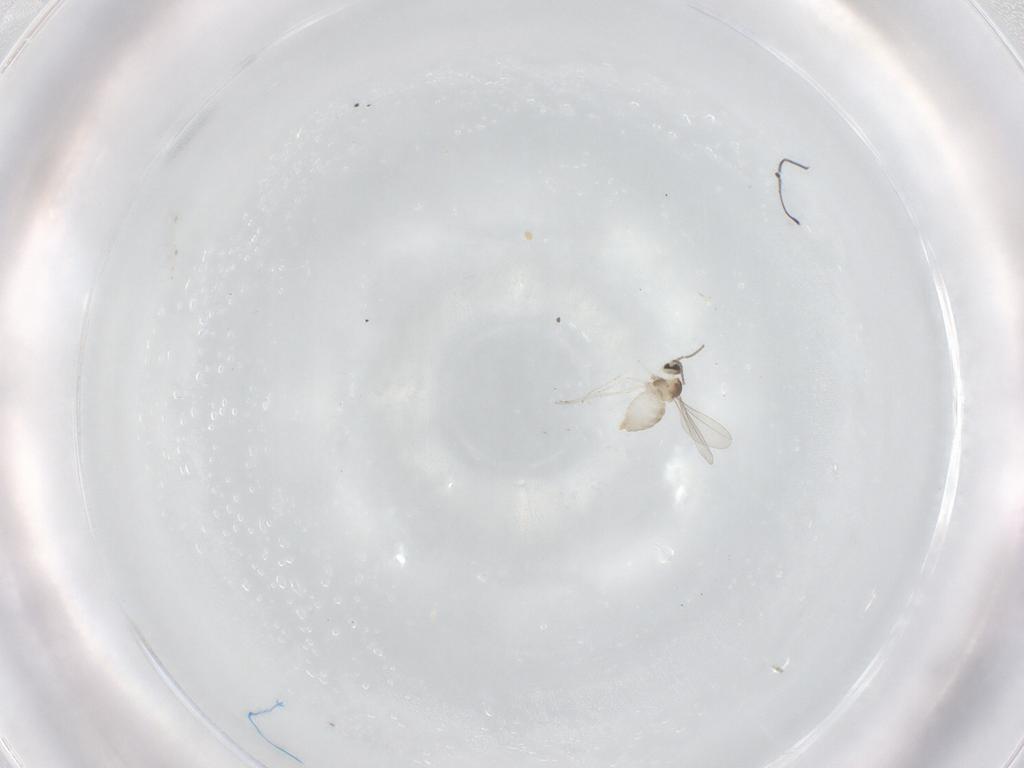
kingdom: Animalia
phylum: Arthropoda
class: Insecta
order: Diptera
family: Cecidomyiidae
